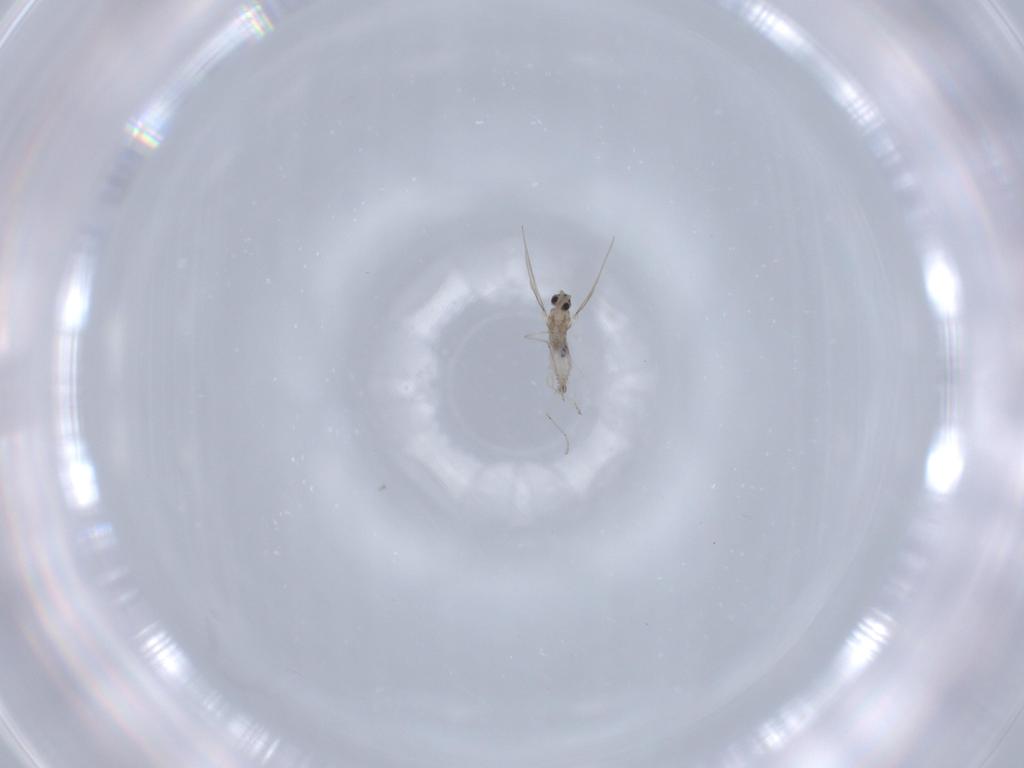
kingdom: Animalia
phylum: Arthropoda
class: Insecta
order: Diptera
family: Cecidomyiidae
